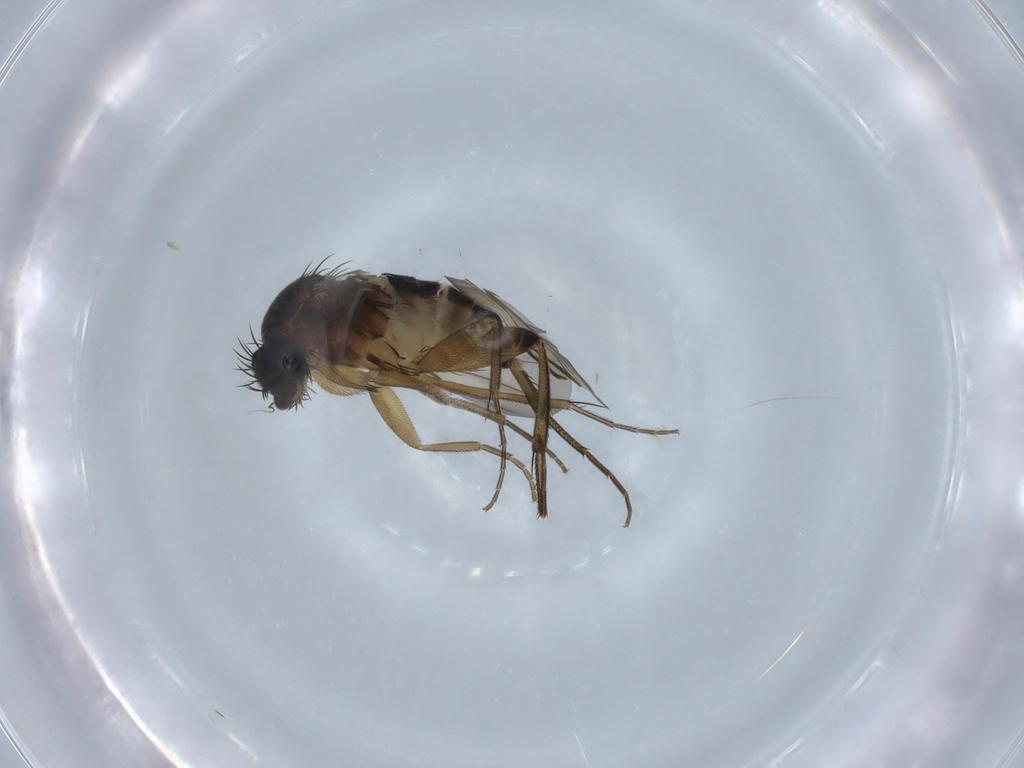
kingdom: Animalia
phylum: Arthropoda
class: Insecta
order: Diptera
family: Phoridae
